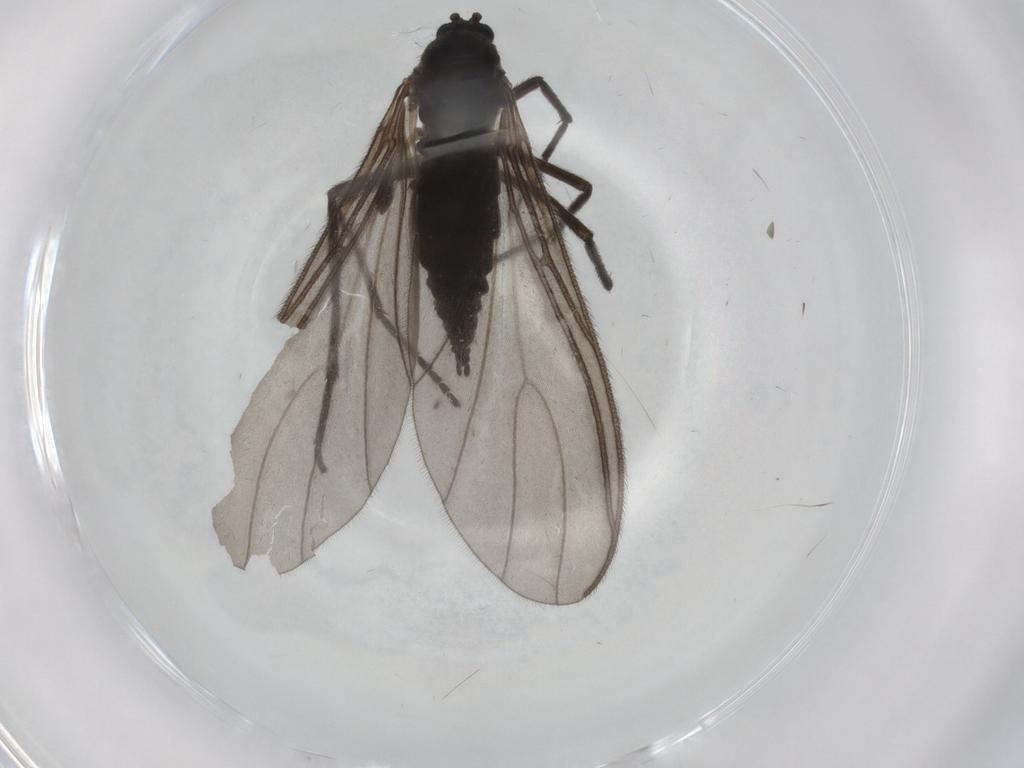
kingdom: Animalia
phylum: Arthropoda
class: Insecta
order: Diptera
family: Sciaridae
